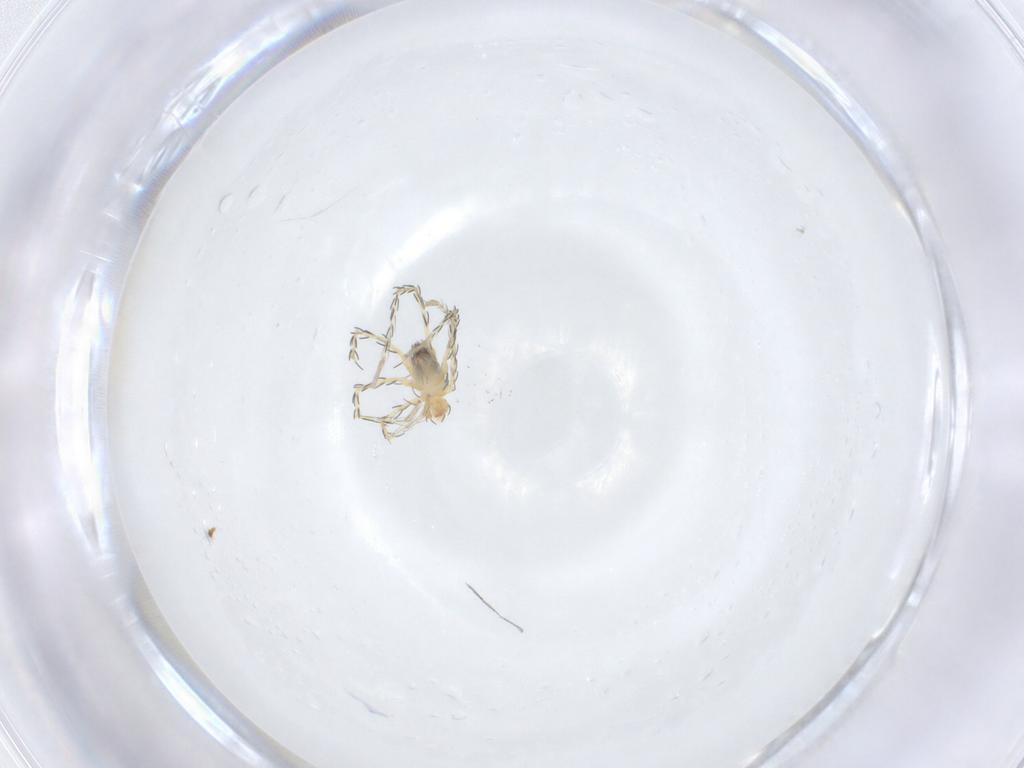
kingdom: Animalia
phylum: Arthropoda
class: Arachnida
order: Trombidiformes
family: Erythraeidae
